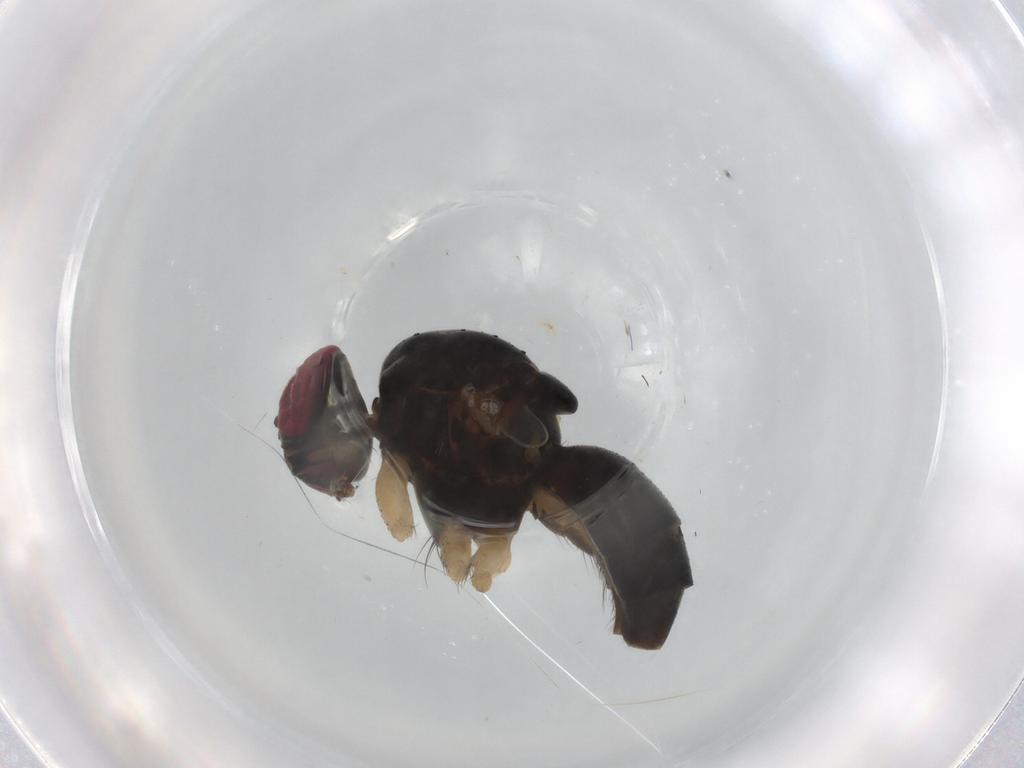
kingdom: Animalia
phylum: Arthropoda
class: Insecta
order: Diptera
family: Muscidae
